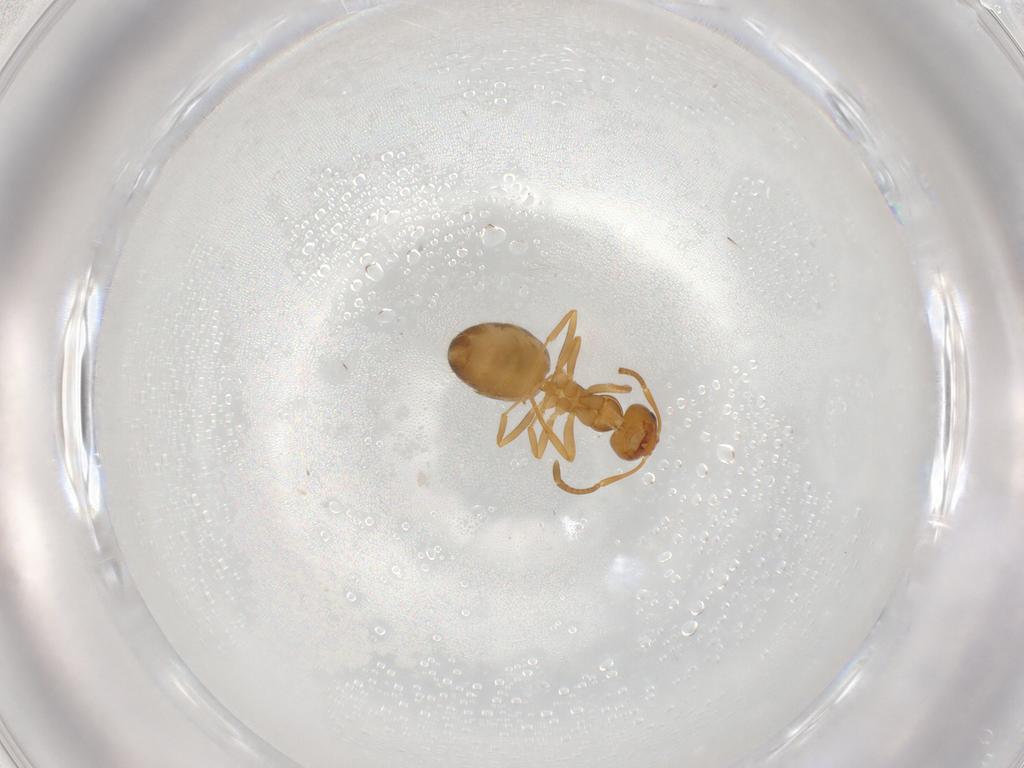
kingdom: Animalia
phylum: Arthropoda
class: Insecta
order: Hymenoptera
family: Formicidae
